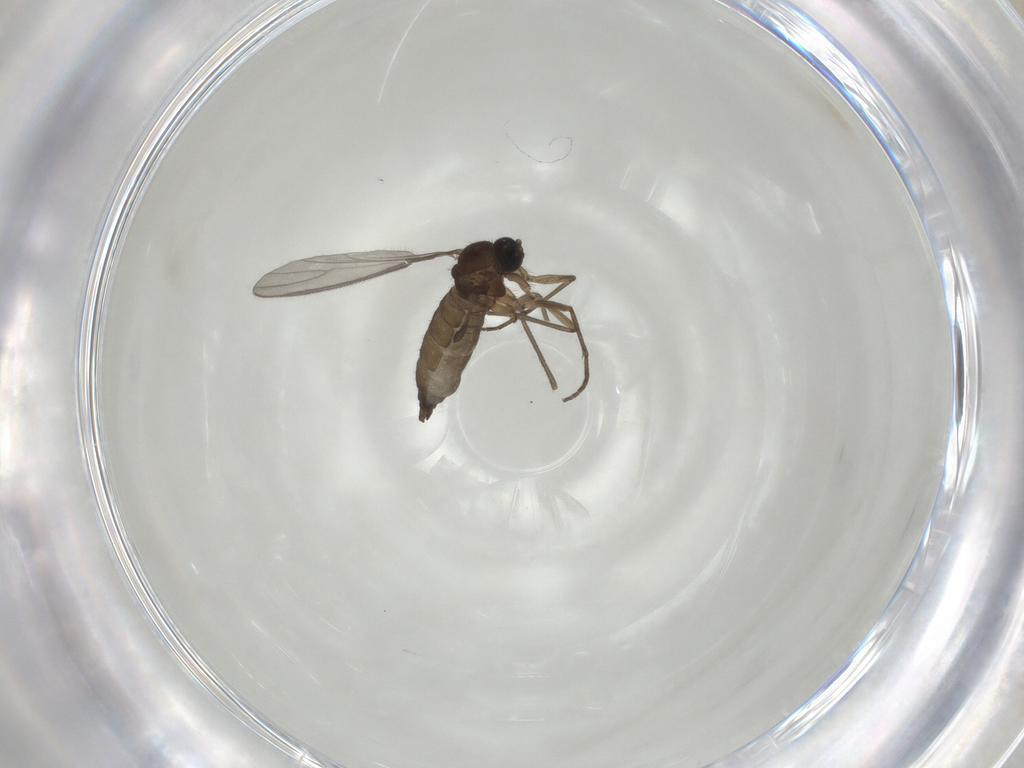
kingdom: Animalia
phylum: Arthropoda
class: Insecta
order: Diptera
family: Sciaridae
